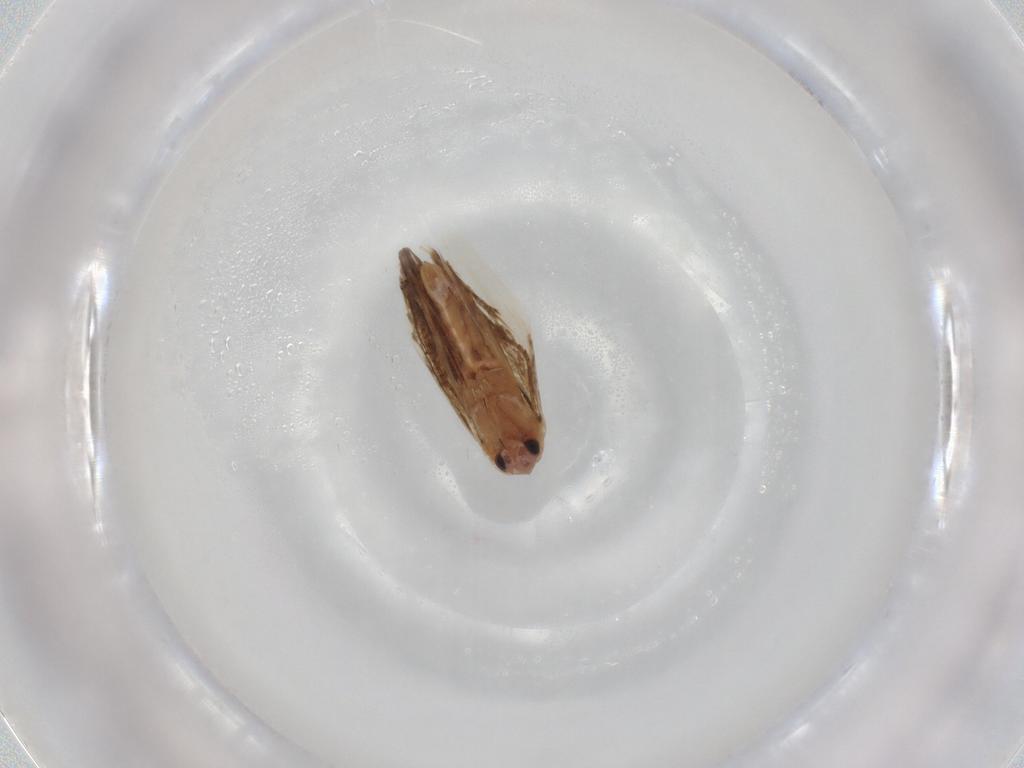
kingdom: Animalia
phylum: Arthropoda
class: Insecta
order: Lepidoptera
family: Bucculatricidae
